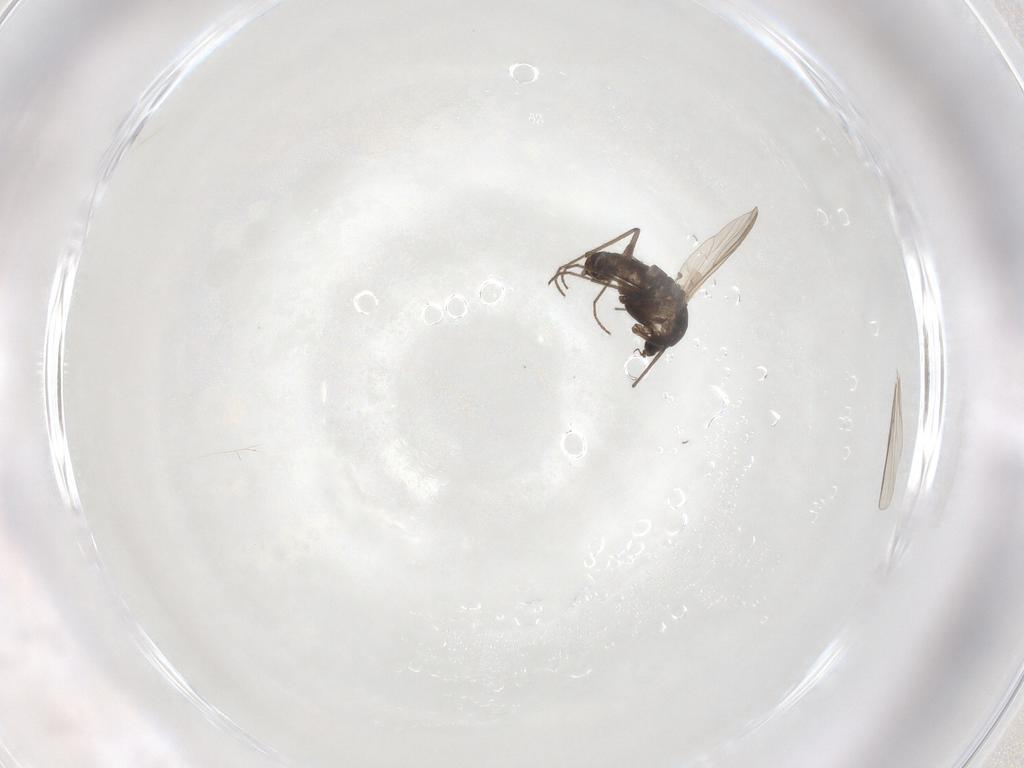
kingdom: Animalia
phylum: Arthropoda
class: Insecta
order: Diptera
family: Chironomidae
